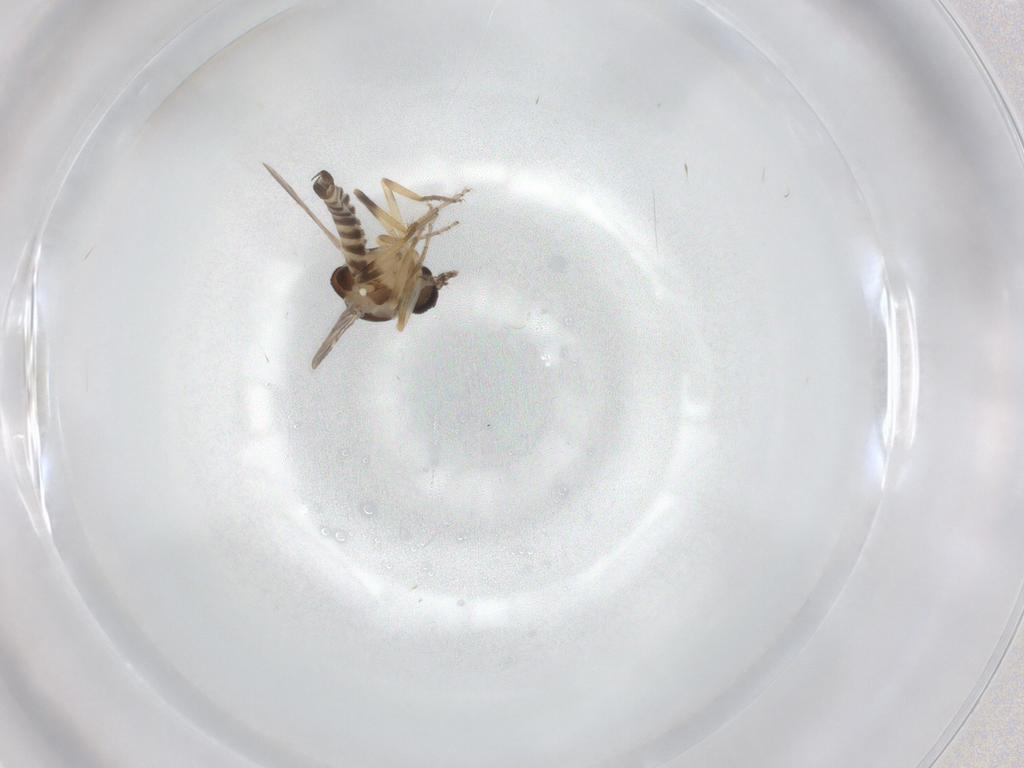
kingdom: Animalia
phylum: Arthropoda
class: Insecta
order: Diptera
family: Ceratopogonidae
